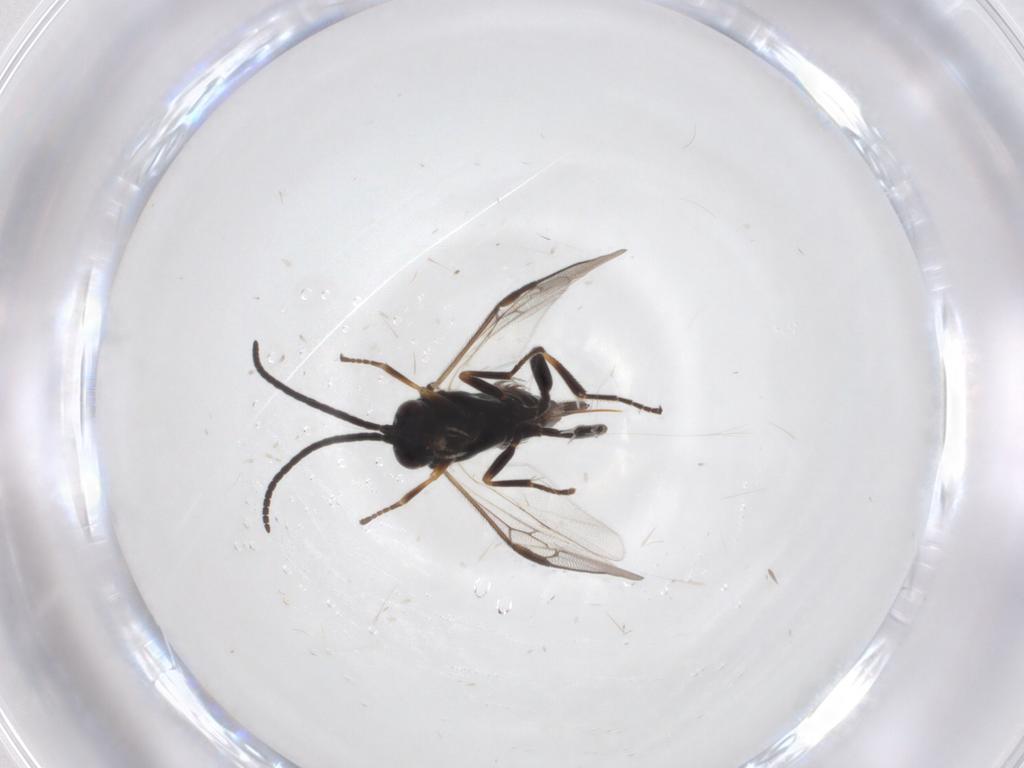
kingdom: Animalia
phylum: Arthropoda
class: Insecta
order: Hymenoptera
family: Braconidae
